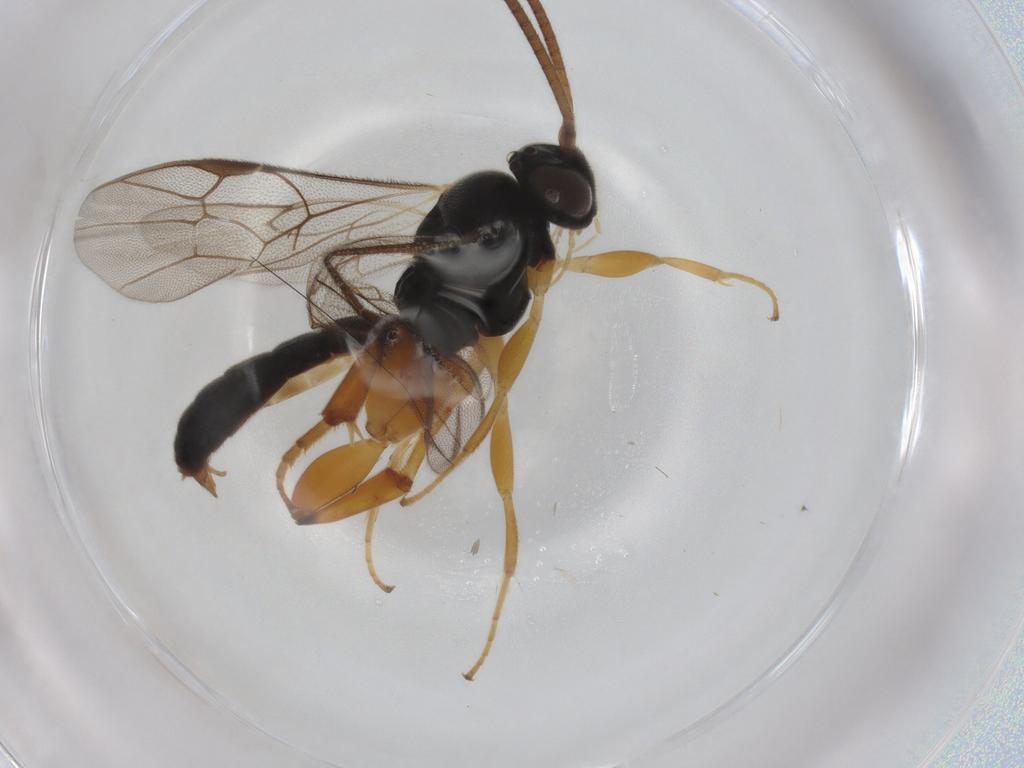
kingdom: Animalia
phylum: Arthropoda
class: Insecta
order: Hymenoptera
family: Ichneumonidae
